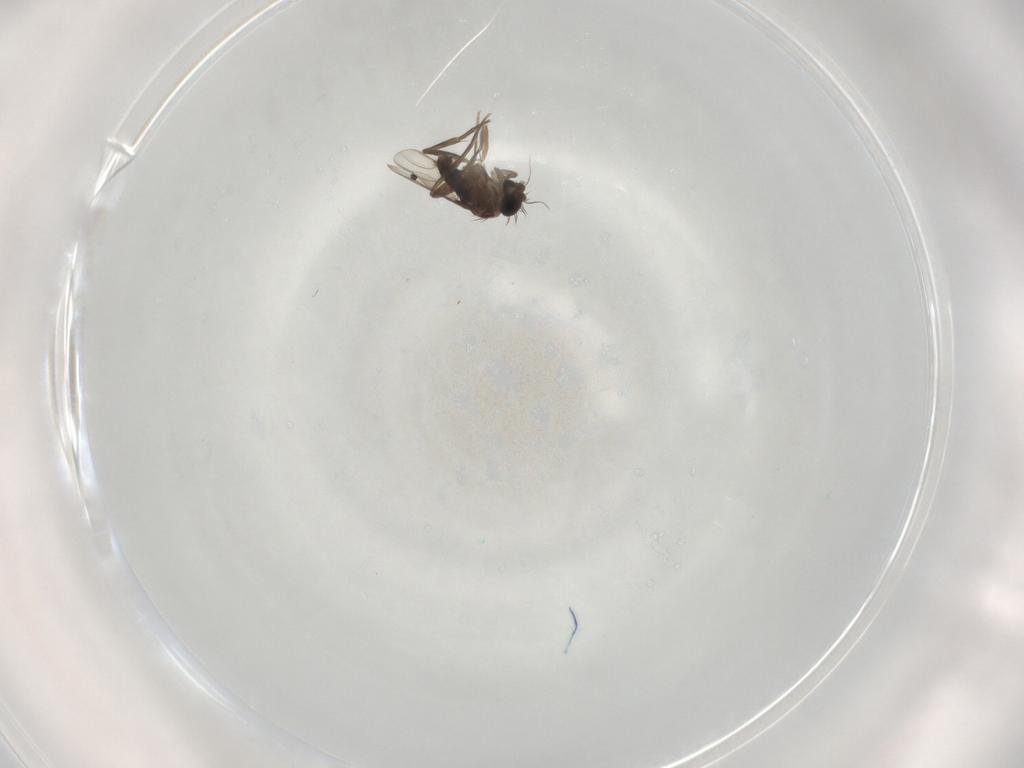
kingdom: Animalia
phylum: Arthropoda
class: Insecta
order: Diptera
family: Phoridae
